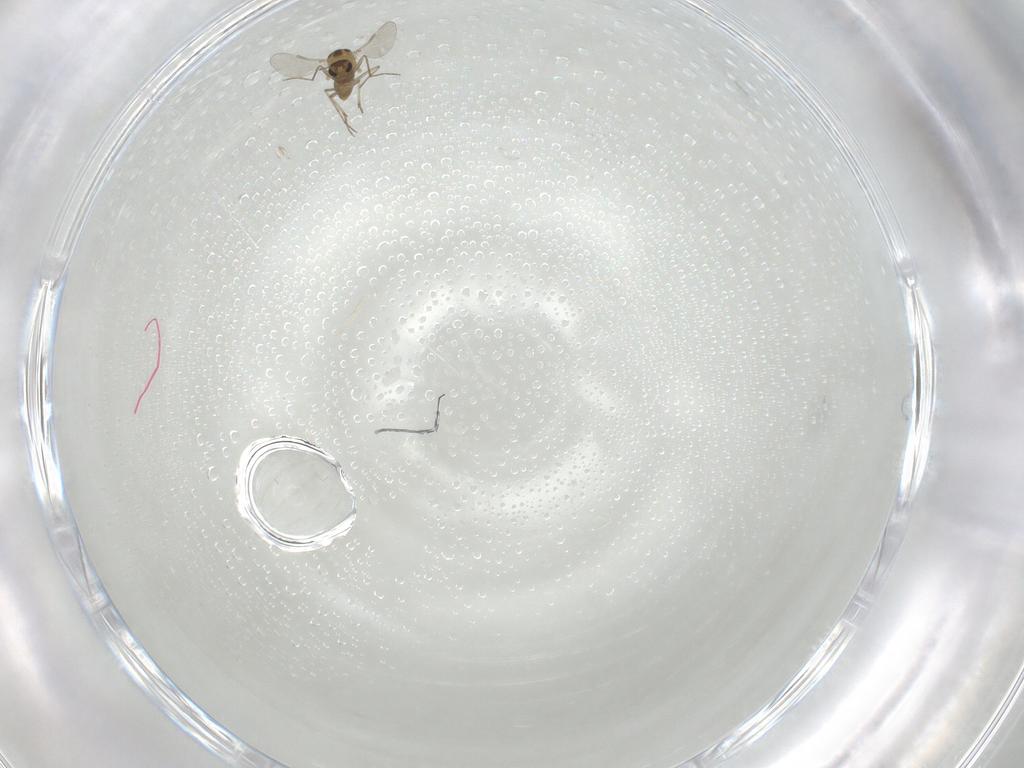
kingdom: Animalia
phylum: Arthropoda
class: Insecta
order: Diptera
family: Chironomidae
